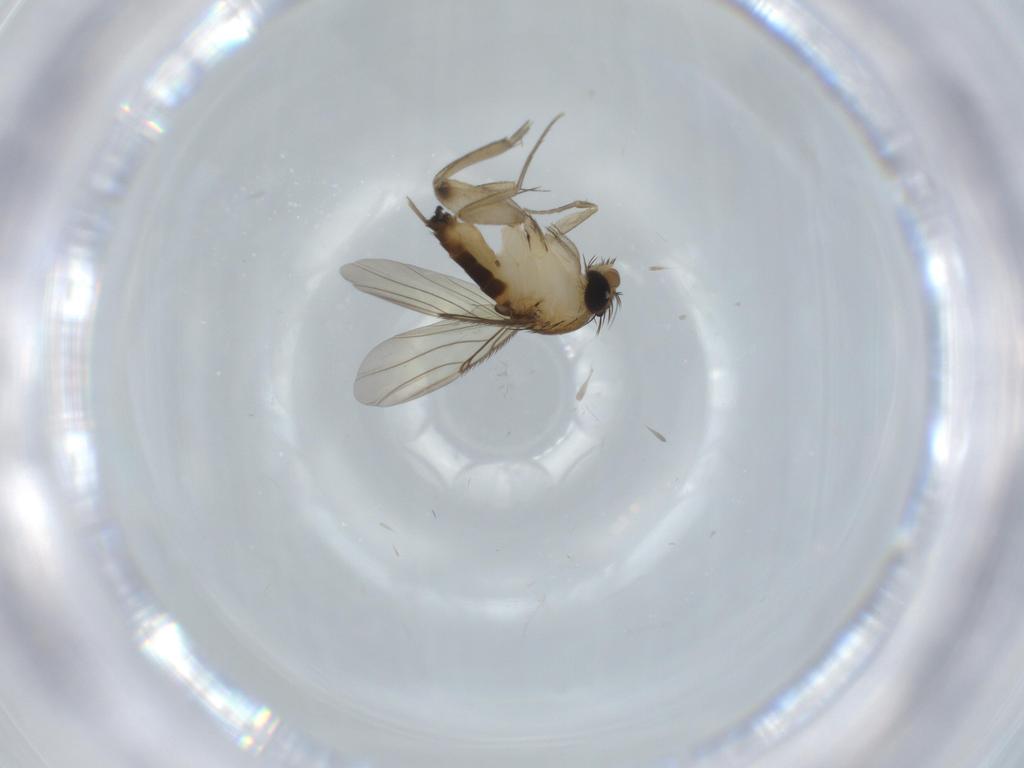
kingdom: Animalia
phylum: Arthropoda
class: Insecta
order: Diptera
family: Phoridae
